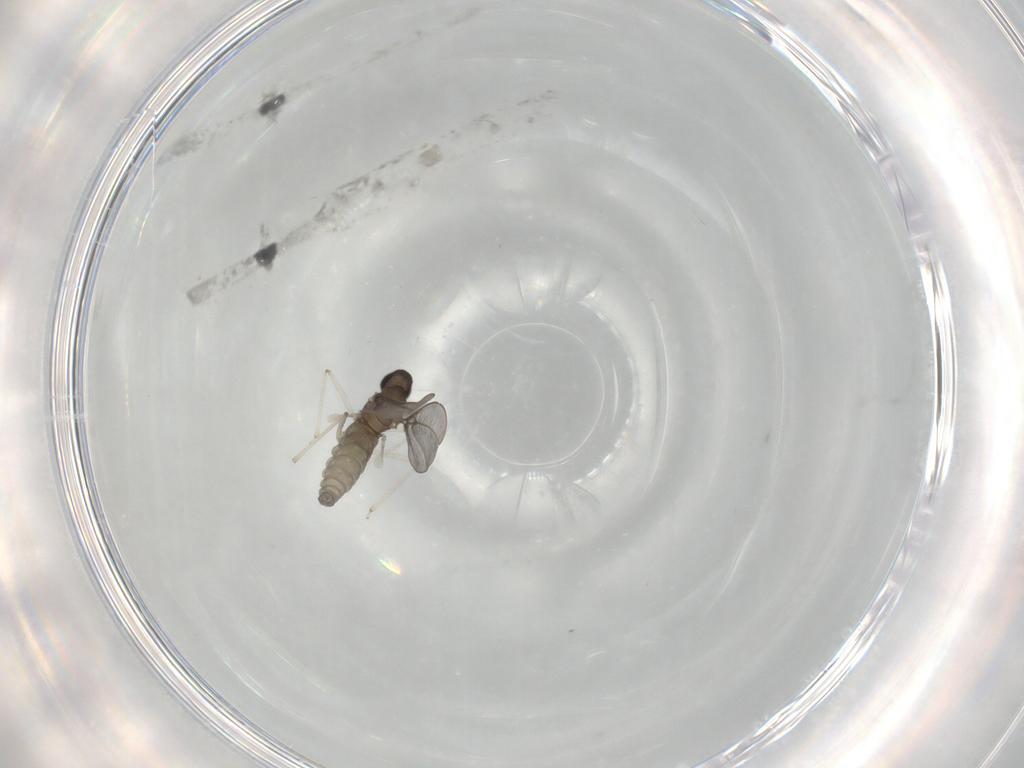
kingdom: Animalia
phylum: Arthropoda
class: Insecta
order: Diptera
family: Cecidomyiidae
